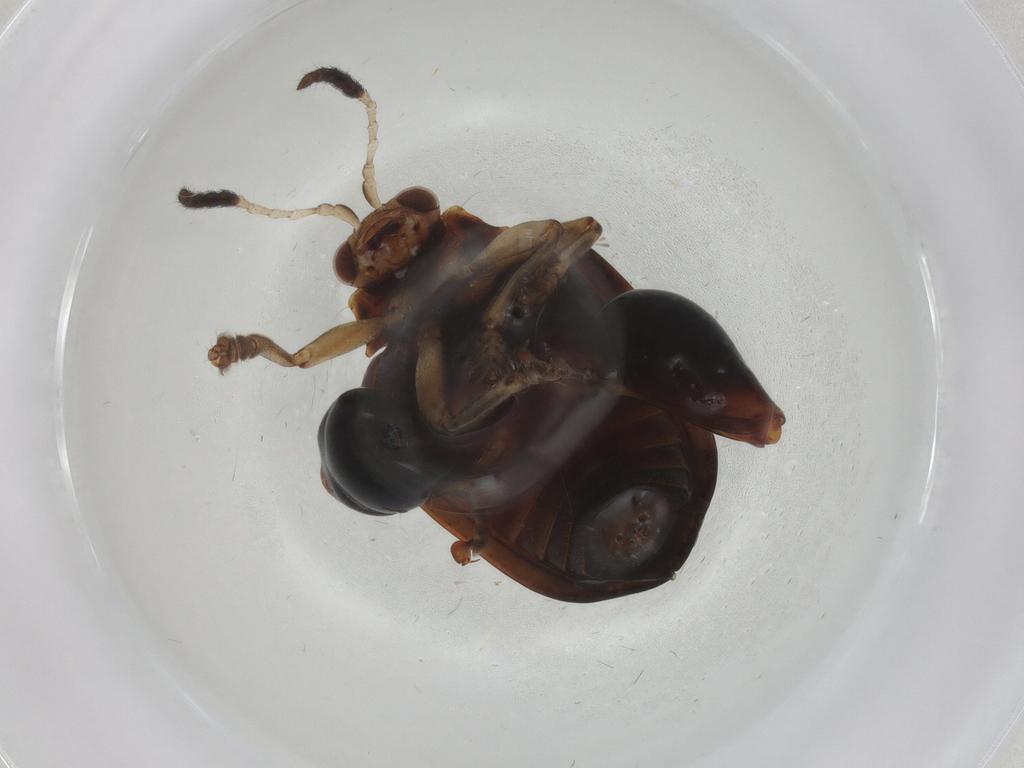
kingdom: Animalia
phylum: Arthropoda
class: Insecta
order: Coleoptera
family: Chrysomelidae
